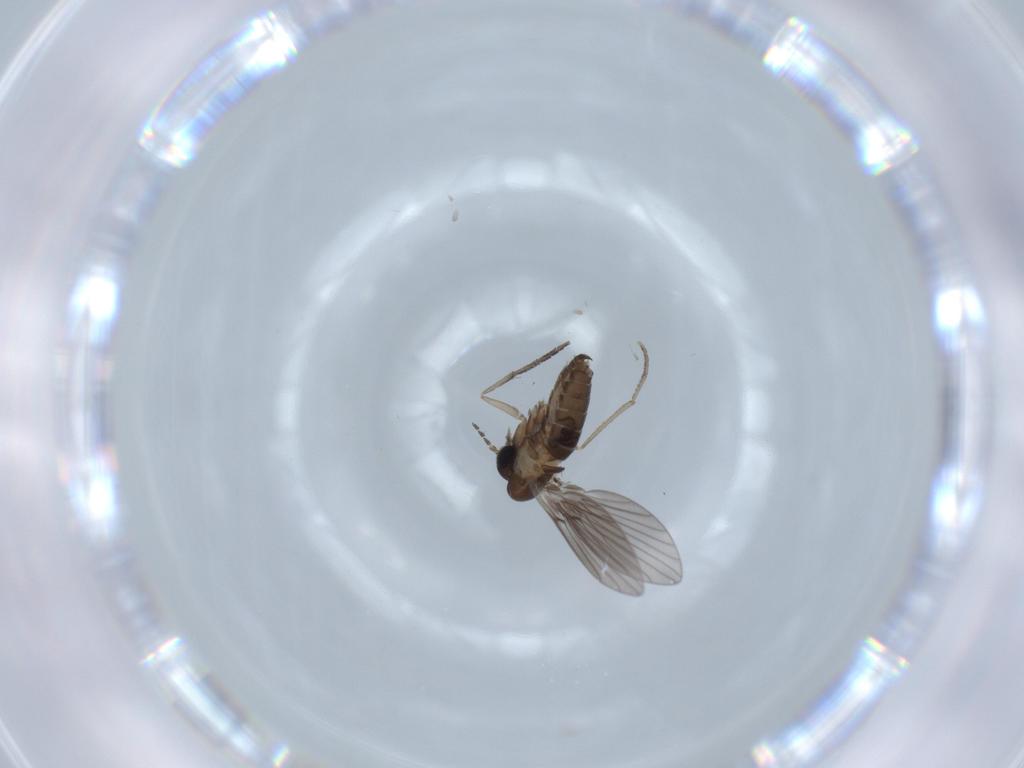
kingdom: Animalia
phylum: Arthropoda
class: Insecta
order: Diptera
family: Psychodidae
